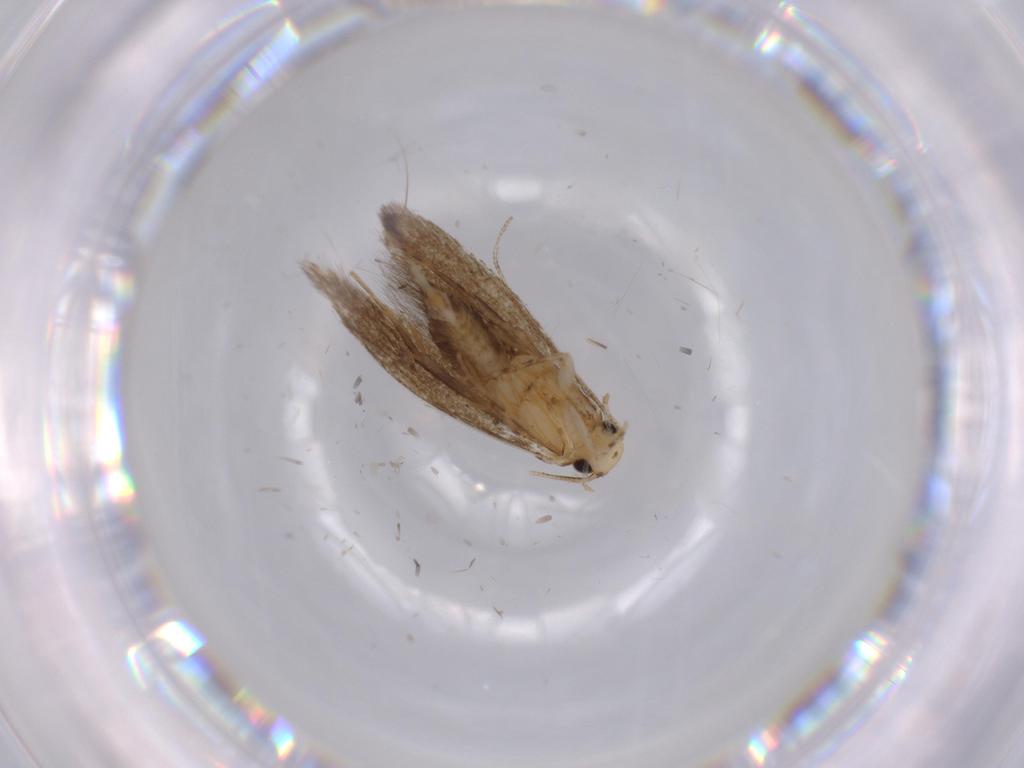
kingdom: Animalia
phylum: Arthropoda
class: Insecta
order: Lepidoptera
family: Tineidae
